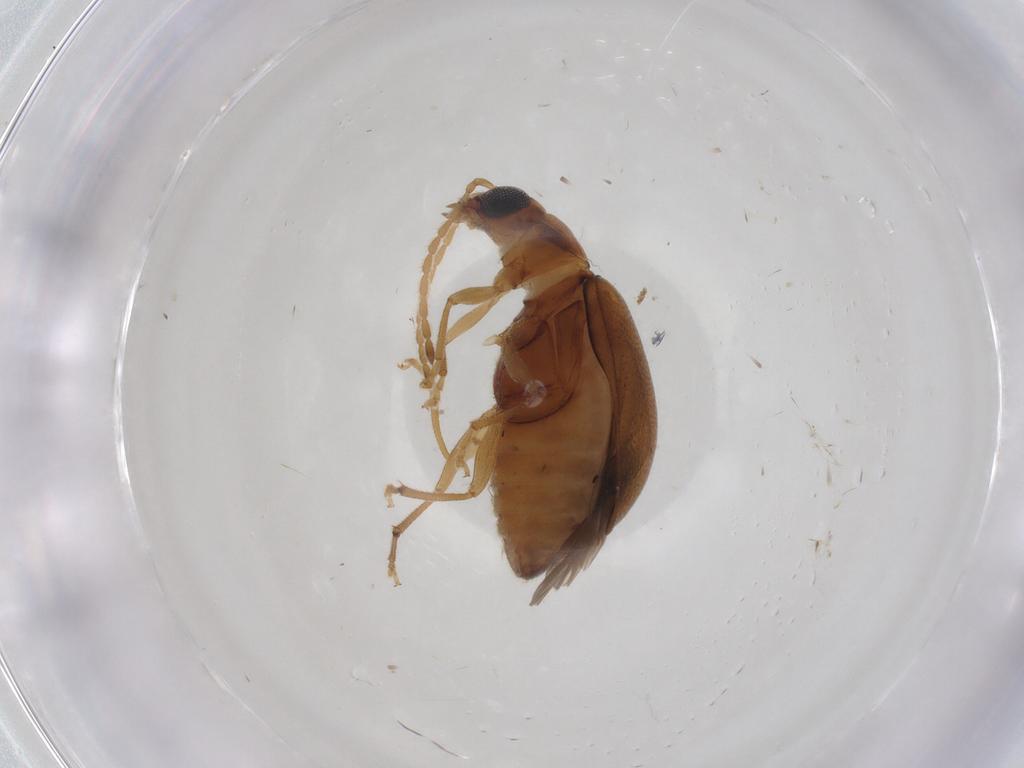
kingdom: Animalia
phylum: Arthropoda
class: Insecta
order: Coleoptera
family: Chrysomelidae
